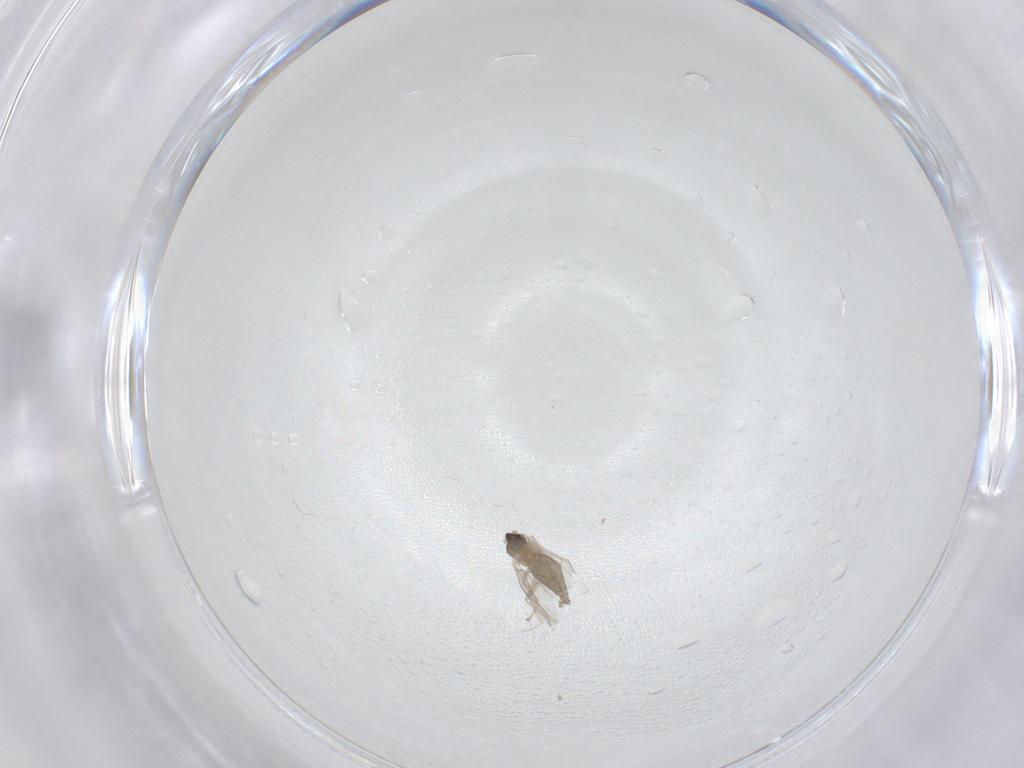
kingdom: Animalia
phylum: Arthropoda
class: Insecta
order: Diptera
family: Cecidomyiidae
